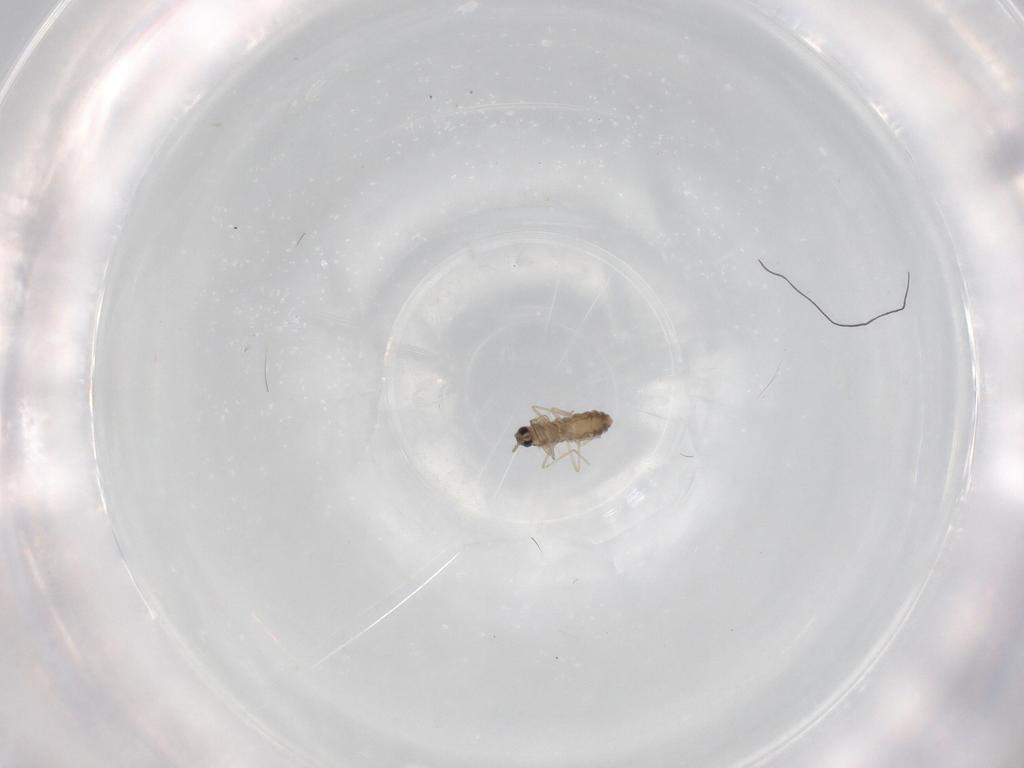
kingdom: Animalia
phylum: Arthropoda
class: Insecta
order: Diptera
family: Cecidomyiidae
